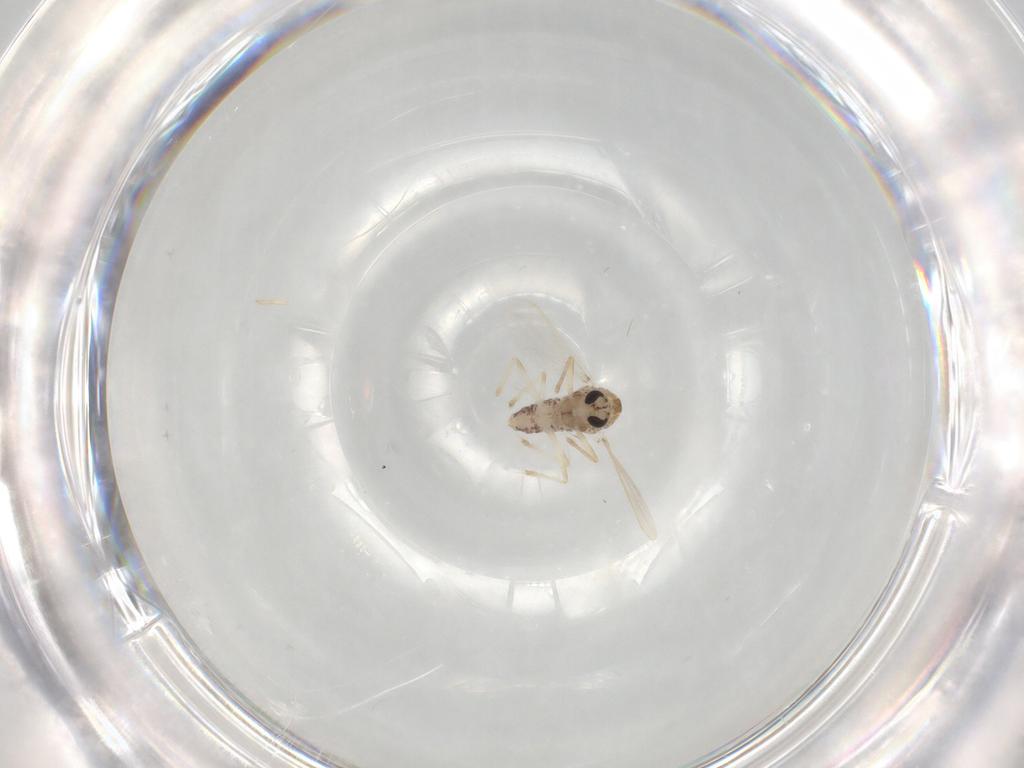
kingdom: Animalia
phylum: Arthropoda
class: Insecta
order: Diptera
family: Chironomidae
